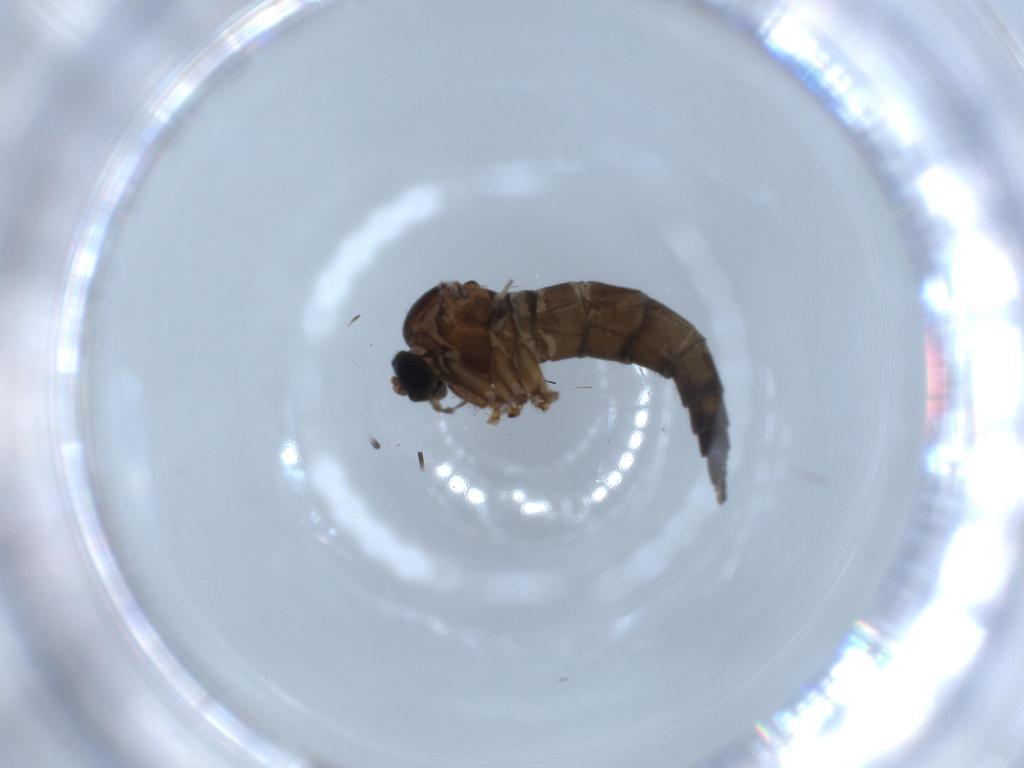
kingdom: Animalia
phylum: Arthropoda
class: Insecta
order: Diptera
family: Sciaridae
